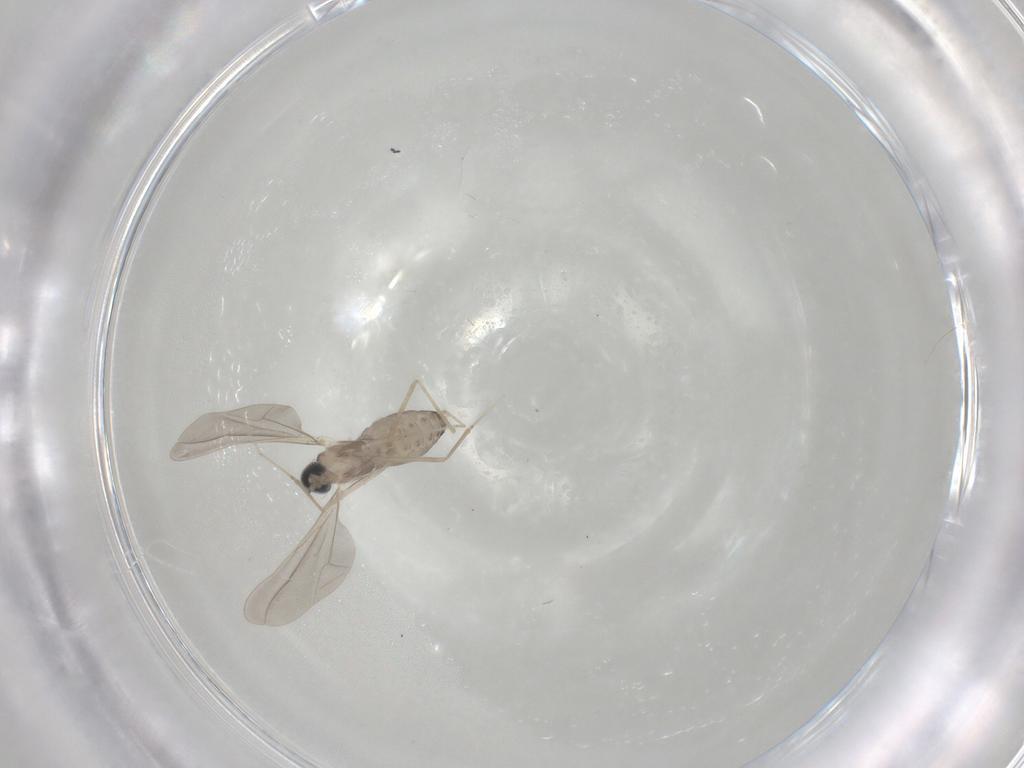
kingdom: Animalia
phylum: Arthropoda
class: Insecta
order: Diptera
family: Cecidomyiidae
